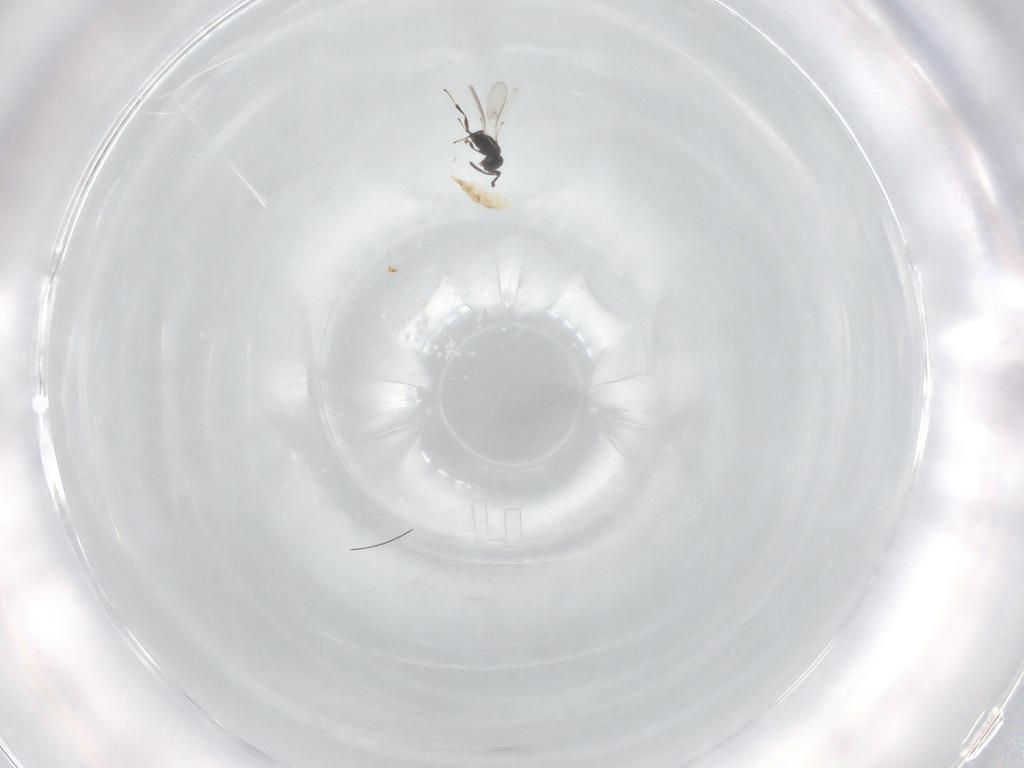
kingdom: Animalia
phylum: Arthropoda
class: Insecta
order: Hymenoptera
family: Scelionidae
